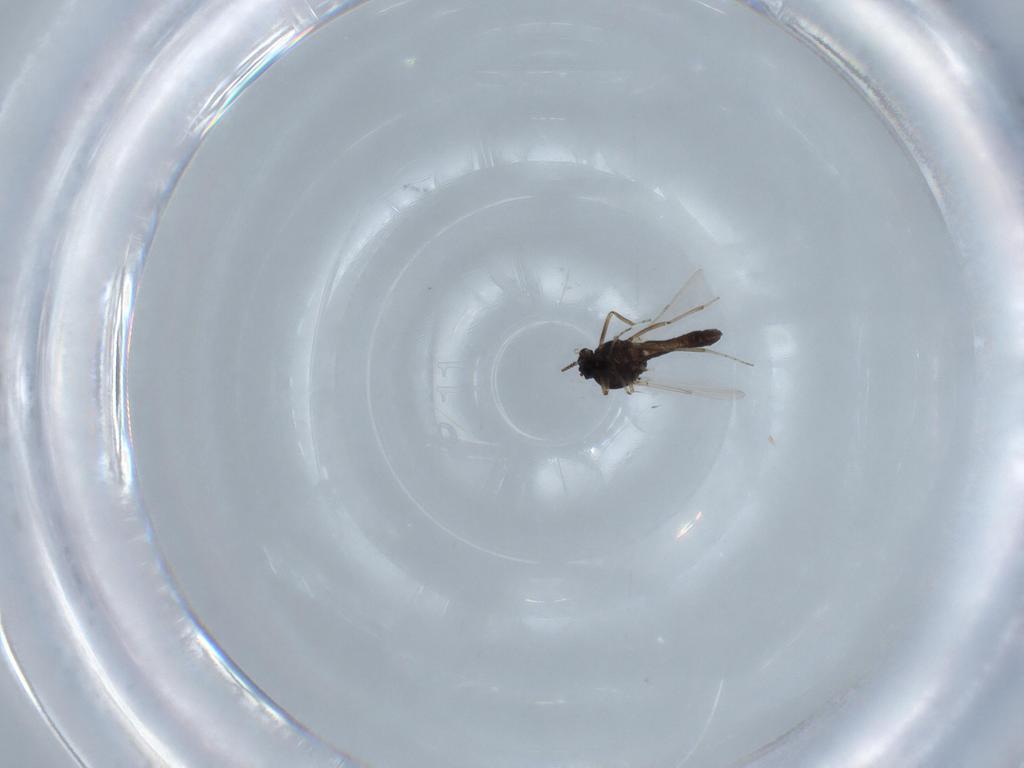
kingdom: Animalia
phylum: Arthropoda
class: Insecta
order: Diptera
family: Ceratopogonidae
